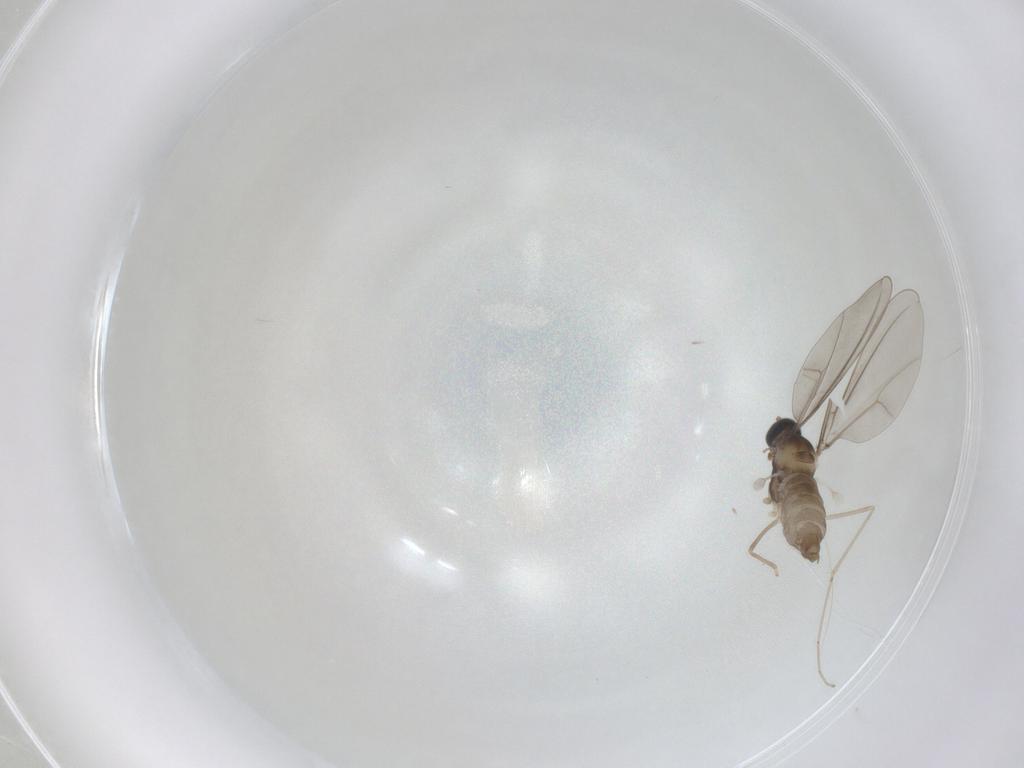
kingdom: Animalia
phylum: Arthropoda
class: Insecta
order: Diptera
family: Cecidomyiidae
